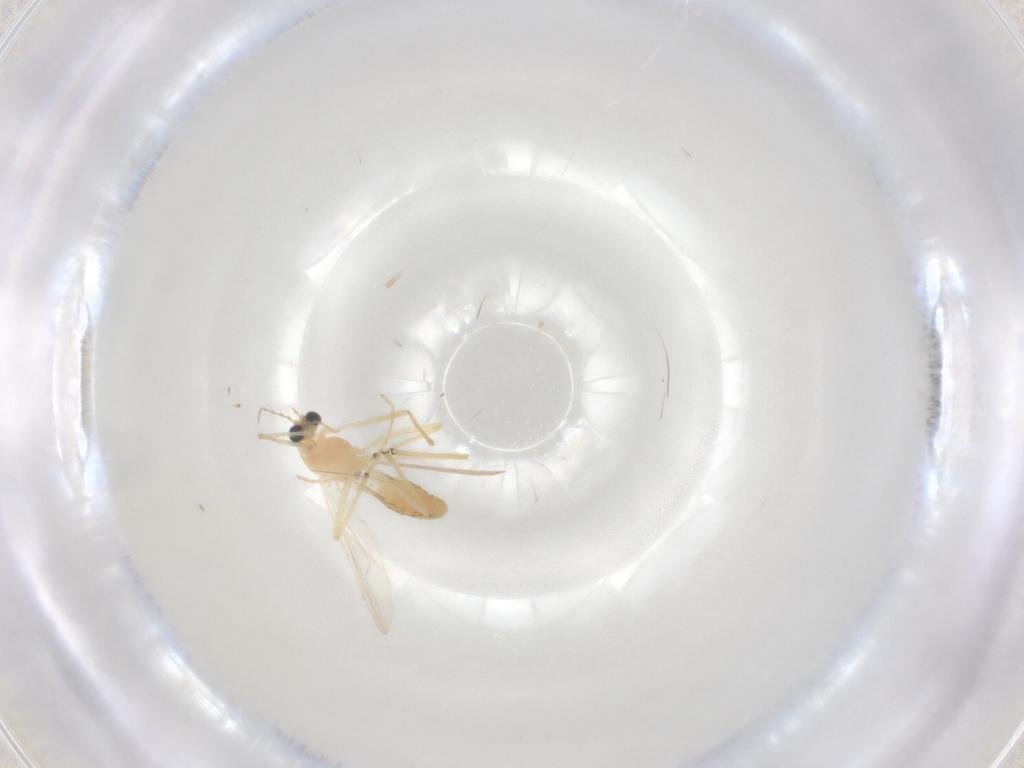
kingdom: Animalia
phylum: Arthropoda
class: Insecta
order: Diptera
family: Chironomidae
